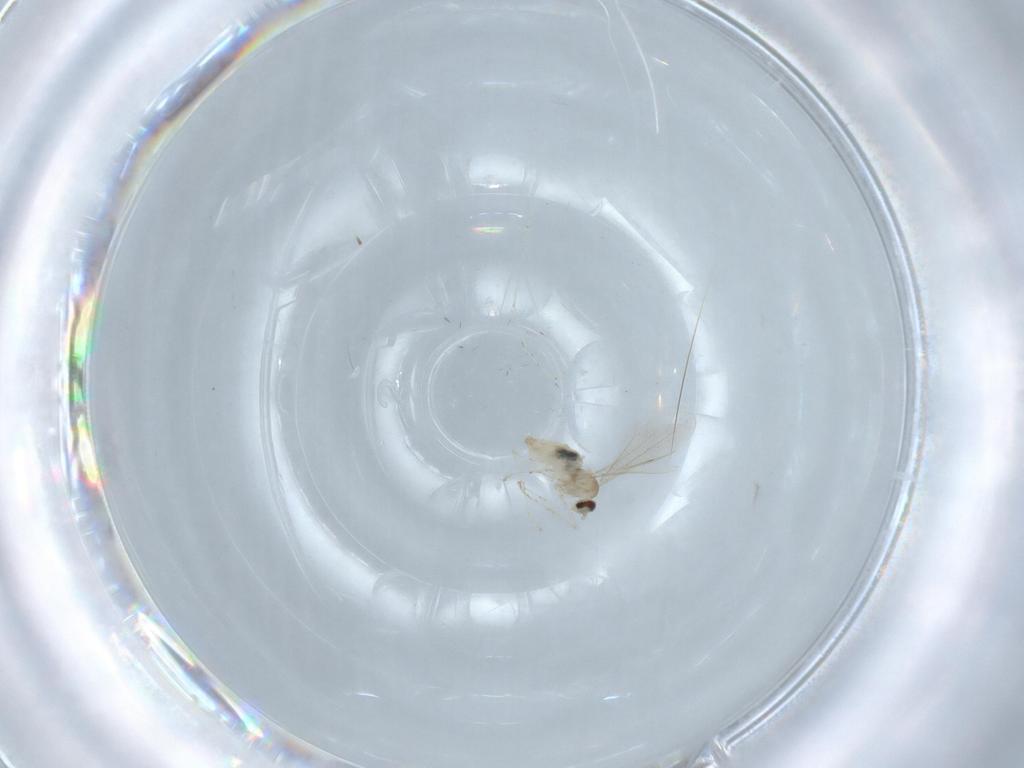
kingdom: Animalia
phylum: Arthropoda
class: Insecta
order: Diptera
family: Cecidomyiidae
